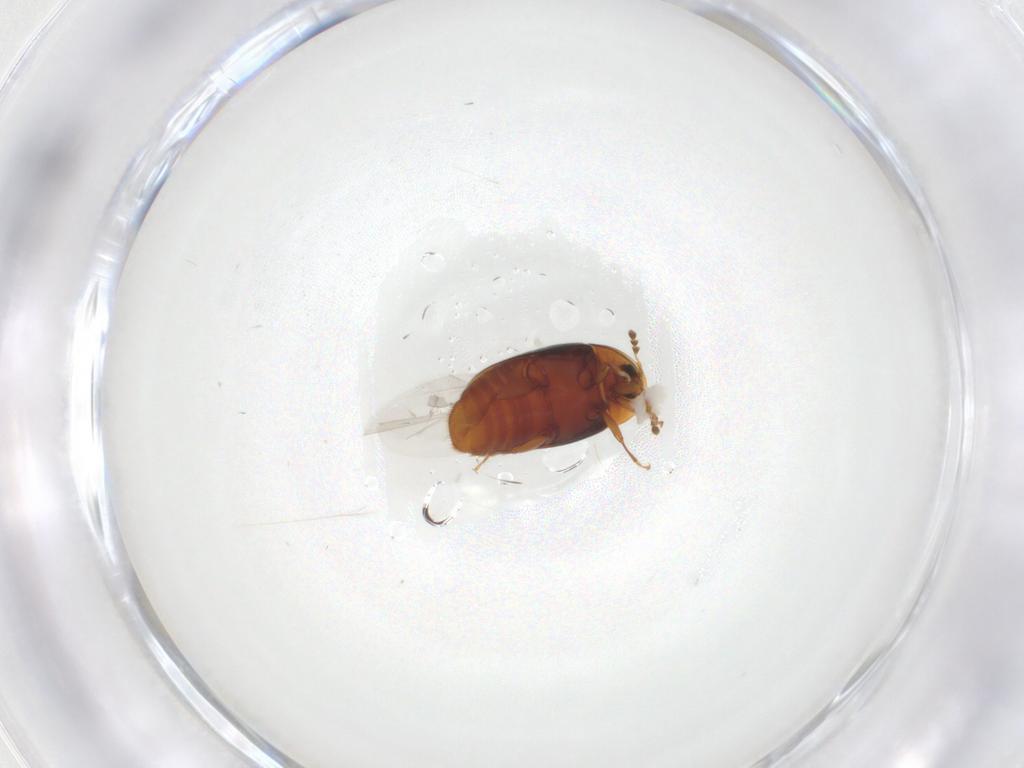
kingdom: Animalia
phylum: Arthropoda
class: Insecta
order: Coleoptera
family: Corylophidae
